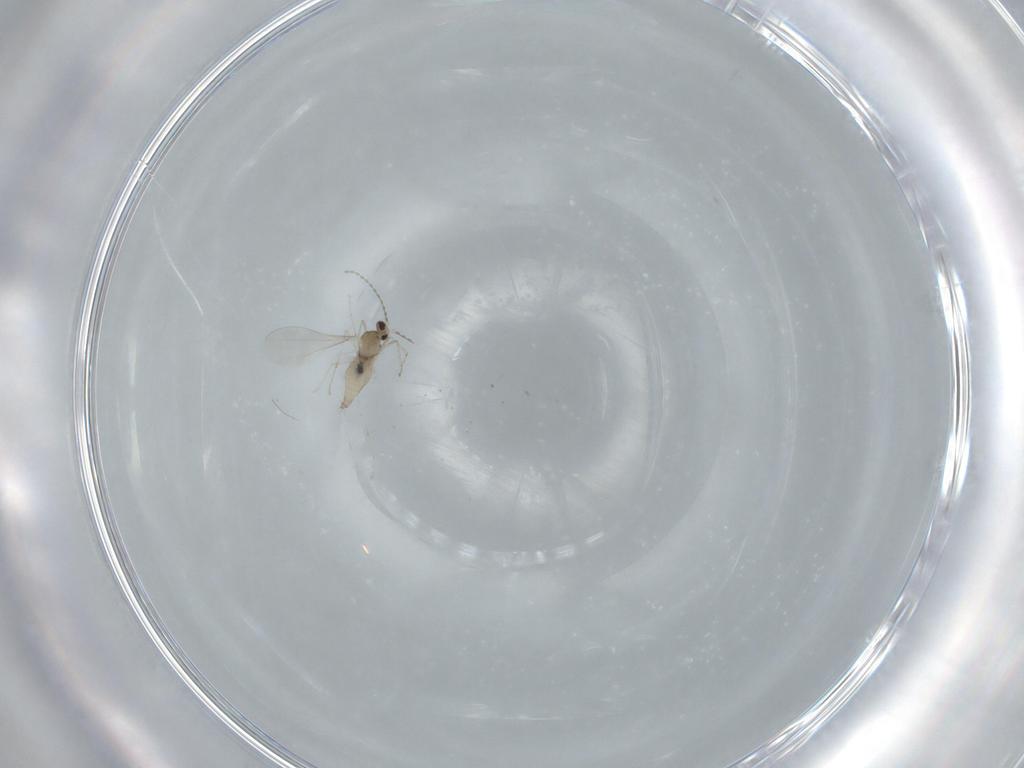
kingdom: Animalia
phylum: Arthropoda
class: Insecta
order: Diptera
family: Cecidomyiidae
